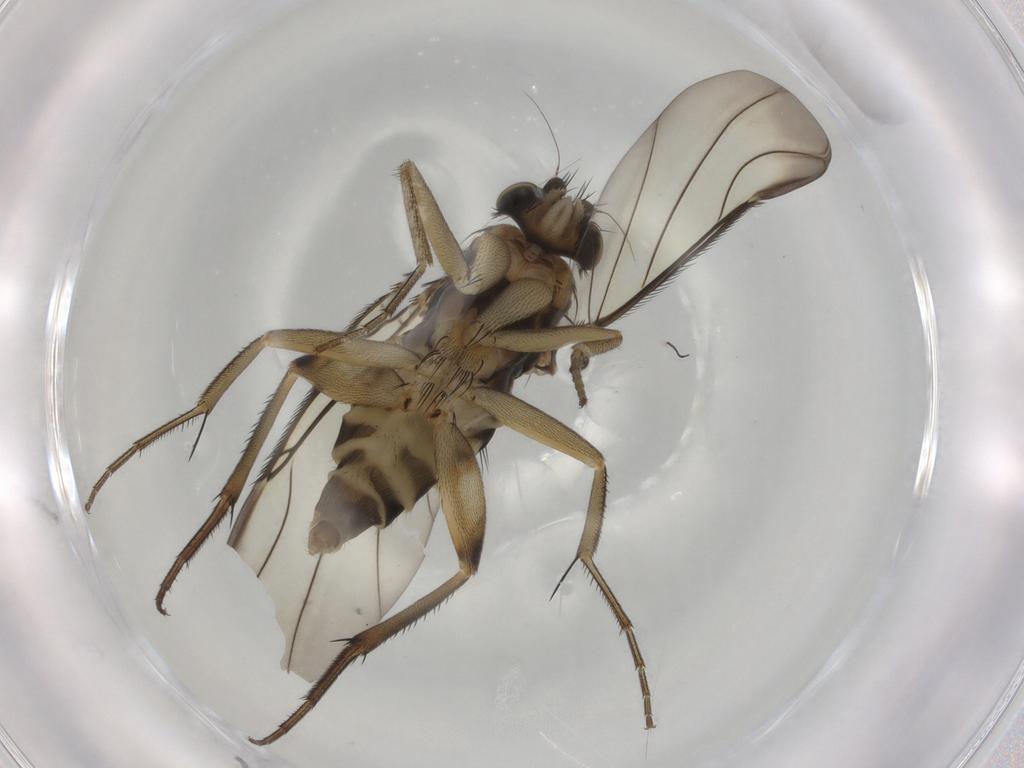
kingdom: Animalia
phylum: Arthropoda
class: Insecta
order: Diptera
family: Phoridae
